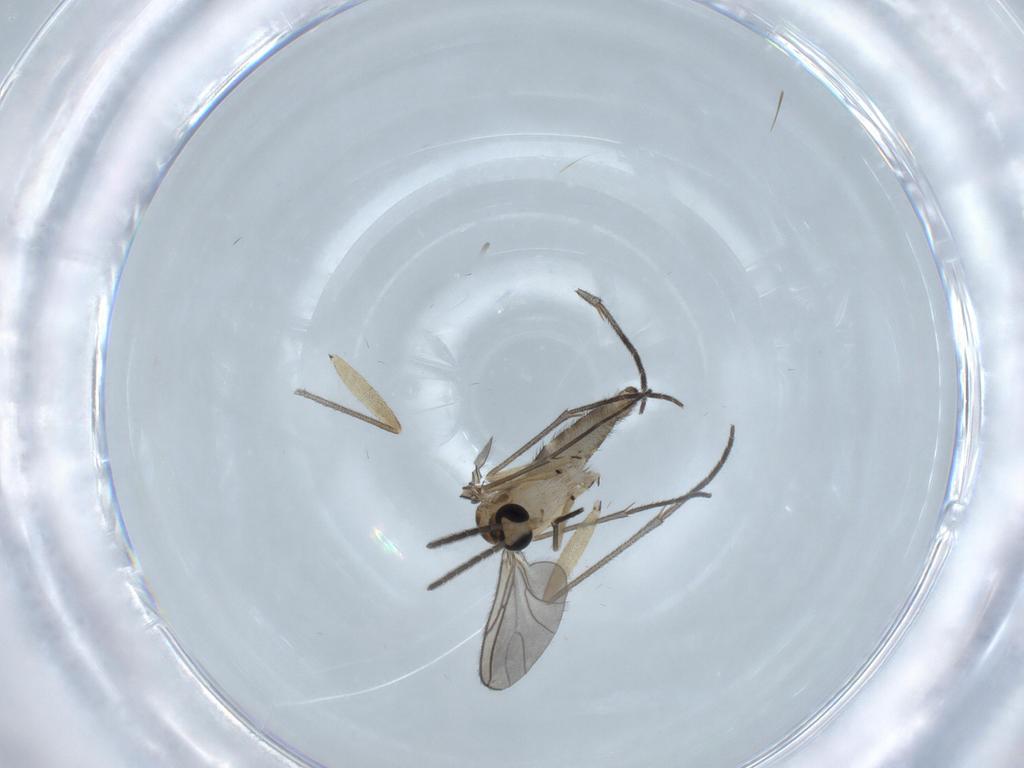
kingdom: Animalia
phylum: Arthropoda
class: Insecta
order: Diptera
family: Sciaridae
